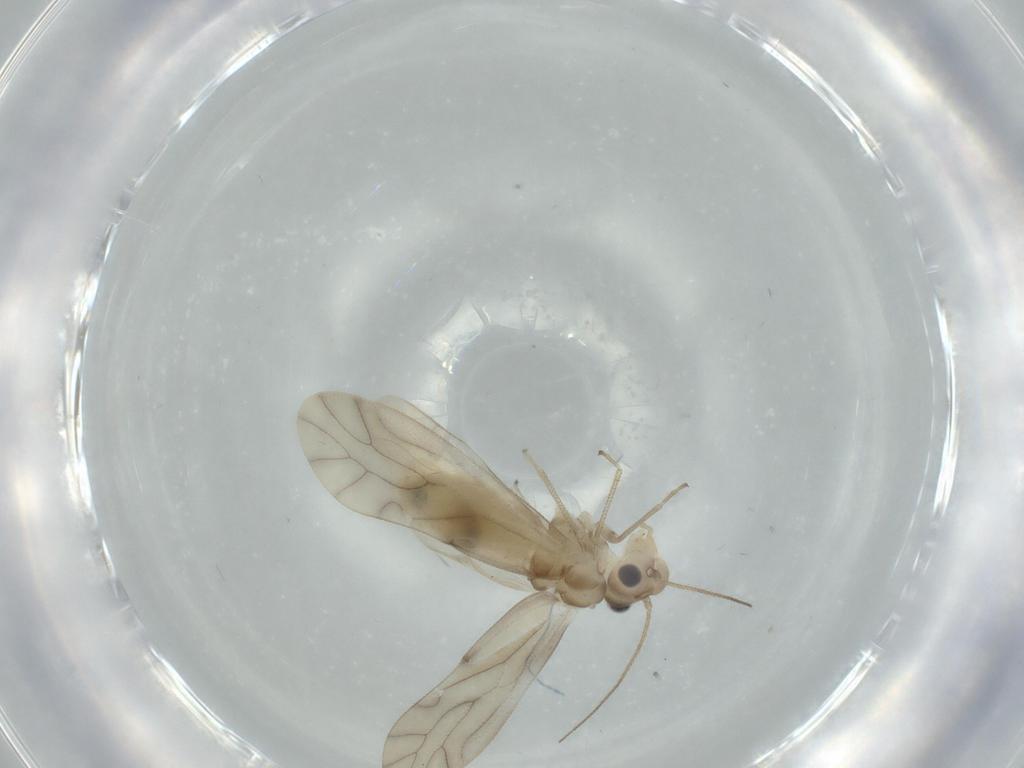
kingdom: Animalia
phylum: Arthropoda
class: Insecta
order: Psocodea
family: Caeciliusidae
